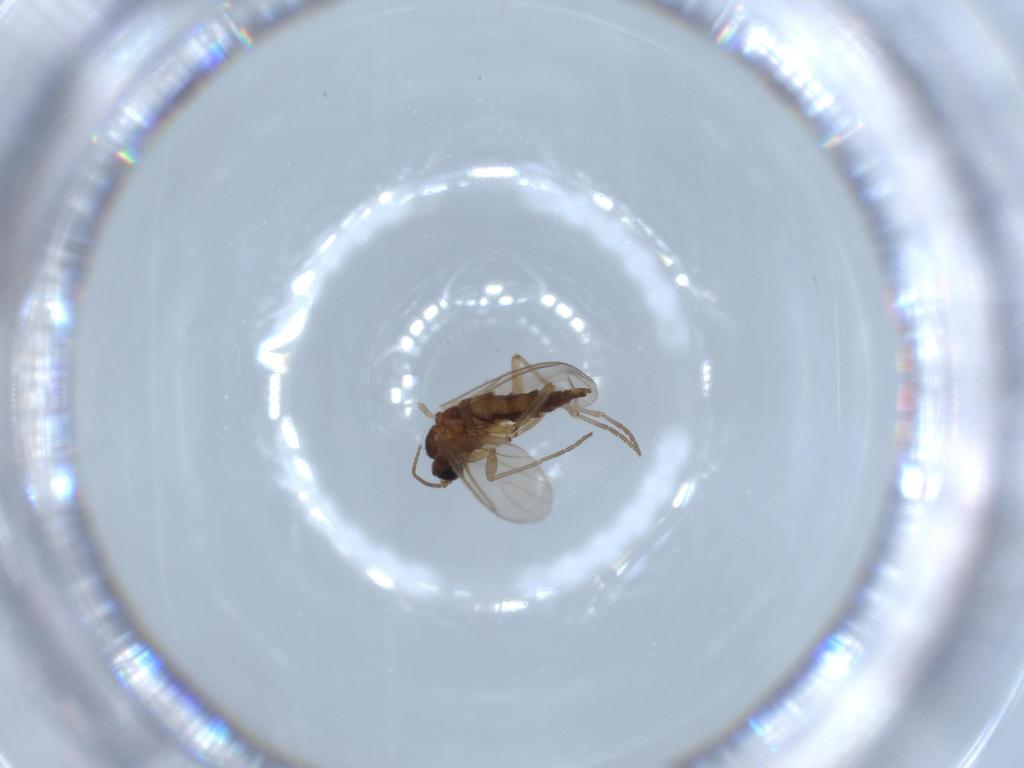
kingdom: Animalia
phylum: Arthropoda
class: Insecta
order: Diptera
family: Sciaridae
